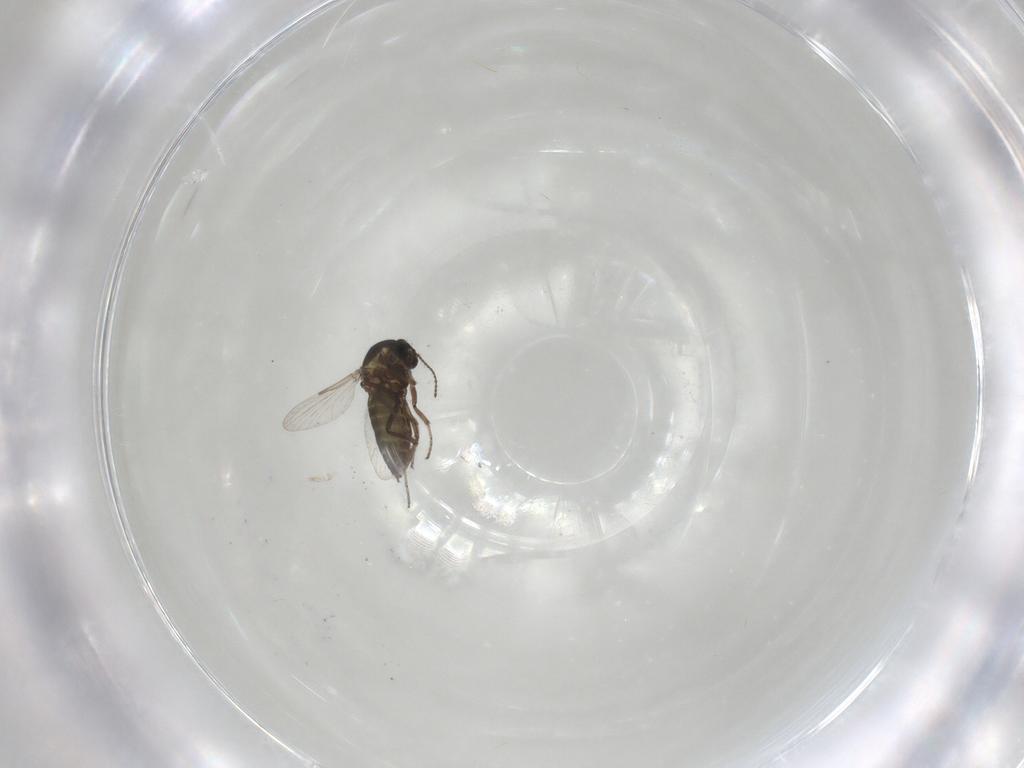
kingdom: Animalia
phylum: Arthropoda
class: Insecta
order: Diptera
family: Ceratopogonidae
